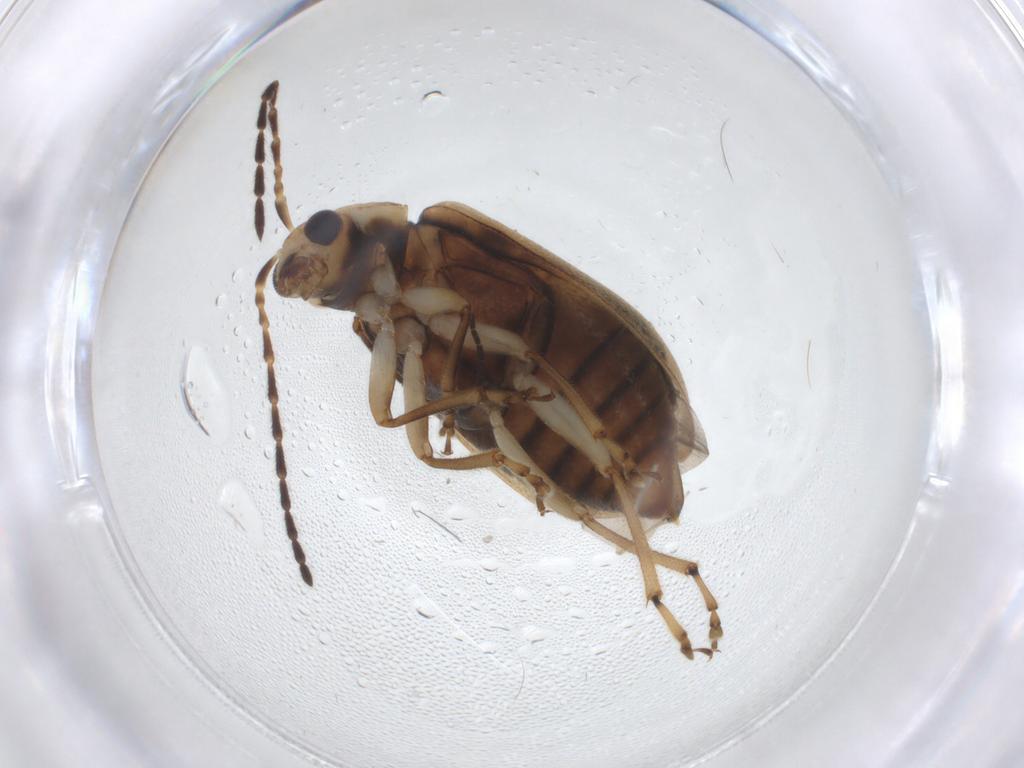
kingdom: Animalia
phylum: Arthropoda
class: Insecta
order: Coleoptera
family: Chrysomelidae
